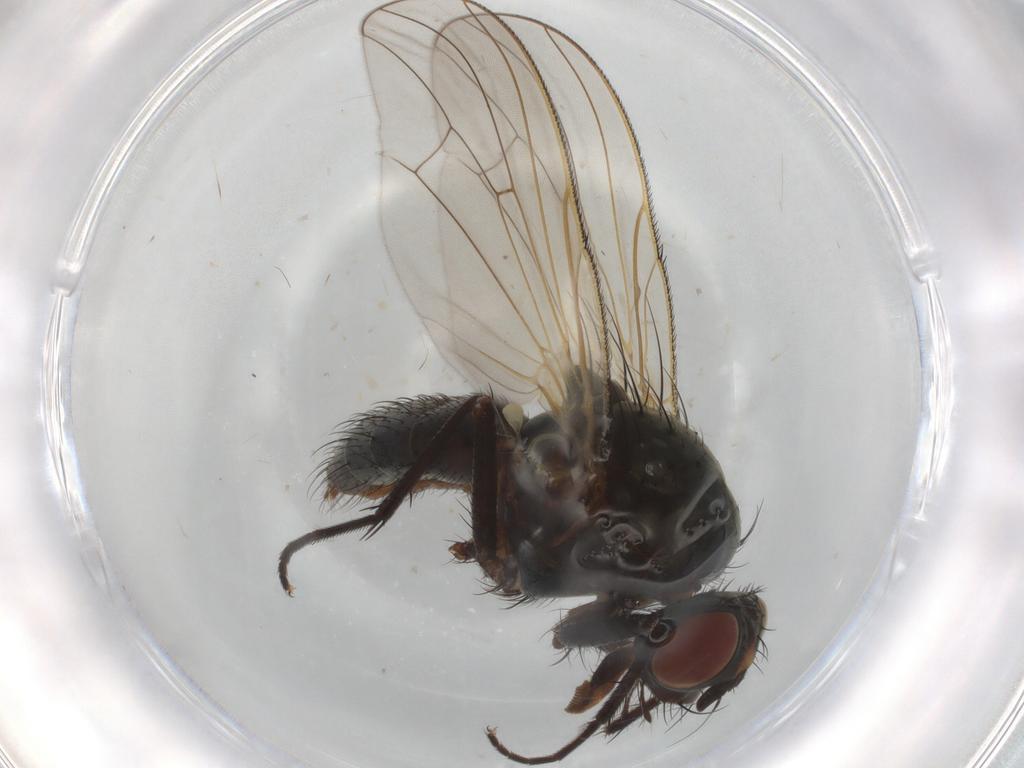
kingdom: Animalia
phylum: Arthropoda
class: Insecta
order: Diptera
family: Anthomyiidae
